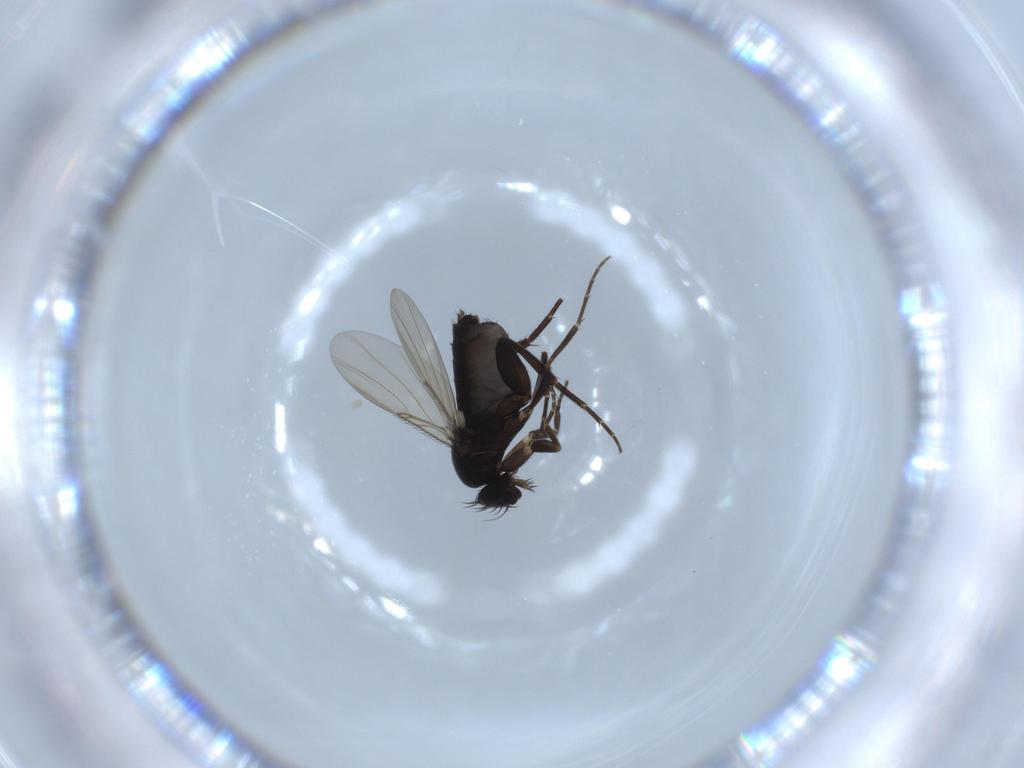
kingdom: Animalia
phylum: Arthropoda
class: Insecta
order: Diptera
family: Phoridae
